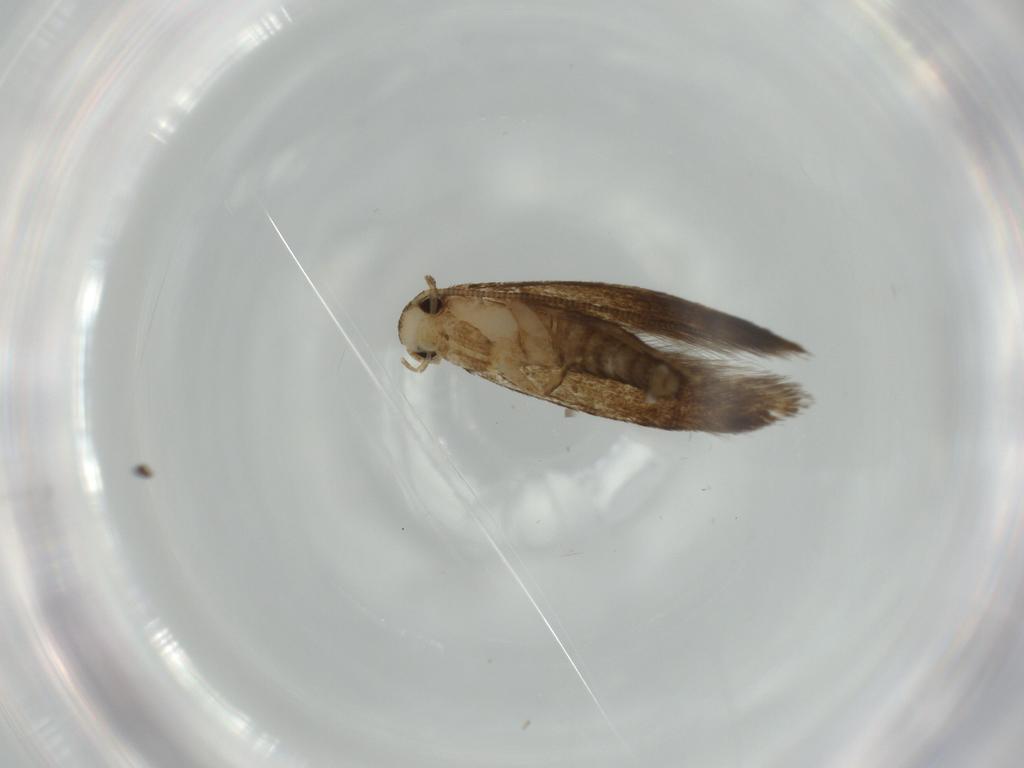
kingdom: Animalia
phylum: Arthropoda
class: Insecta
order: Lepidoptera
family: Tineidae
